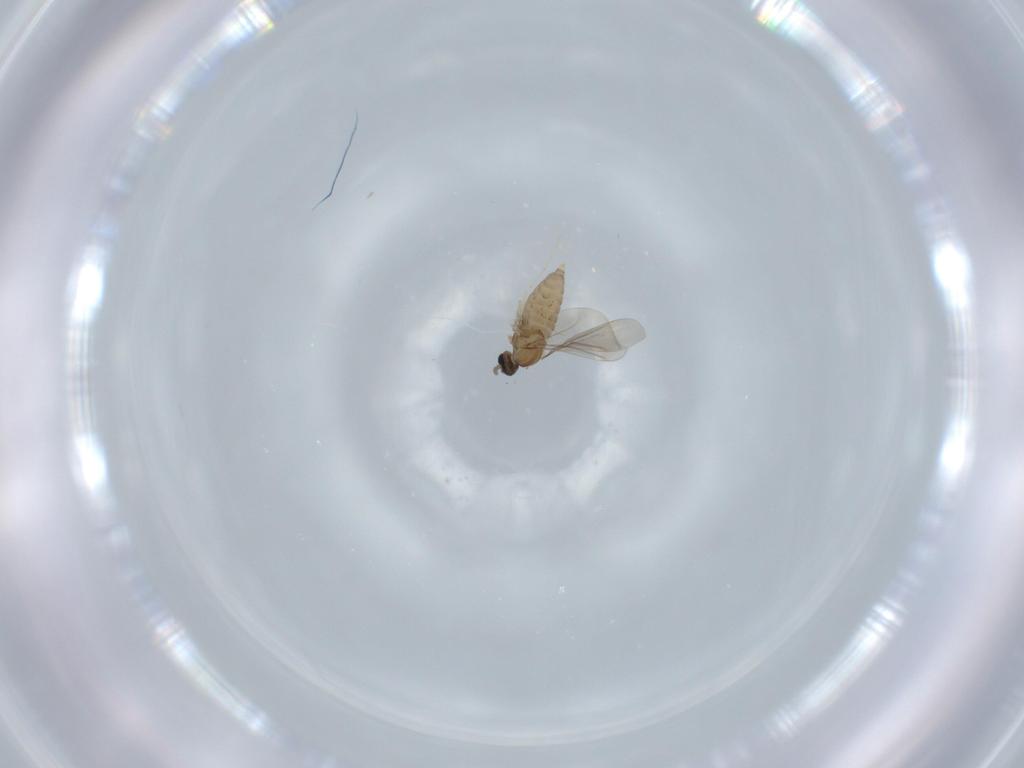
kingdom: Animalia
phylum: Arthropoda
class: Insecta
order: Diptera
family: Cecidomyiidae
